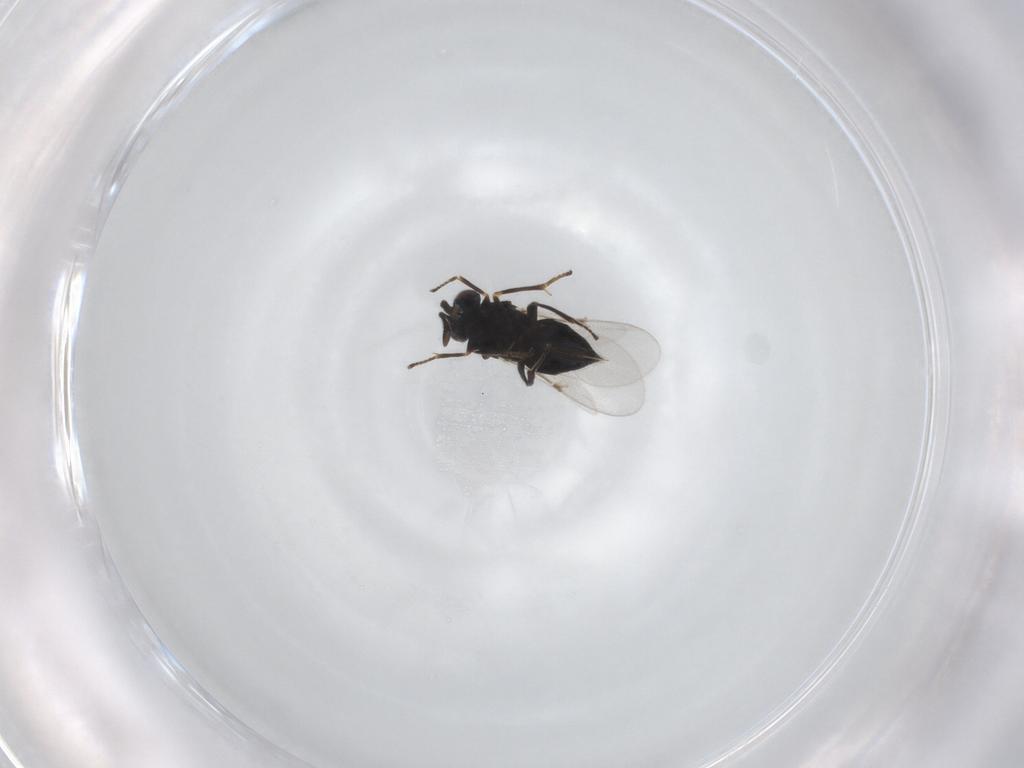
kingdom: Animalia
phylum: Arthropoda
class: Insecta
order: Hymenoptera
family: Encyrtidae
